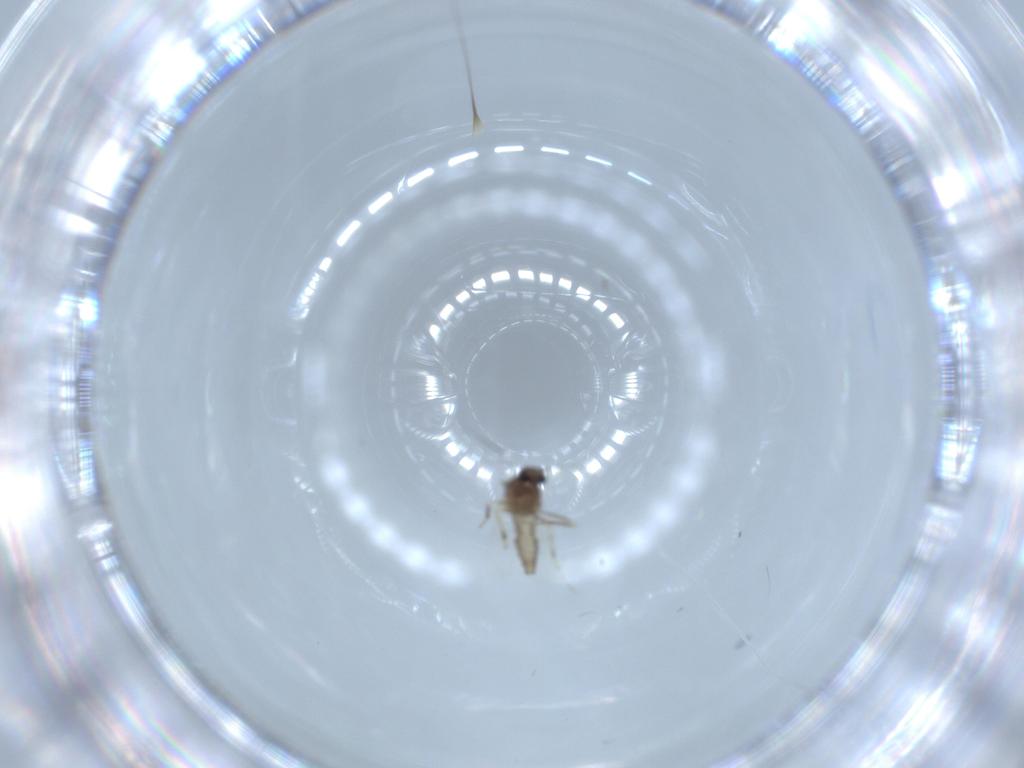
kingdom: Animalia
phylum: Arthropoda
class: Insecta
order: Diptera
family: Ceratopogonidae
